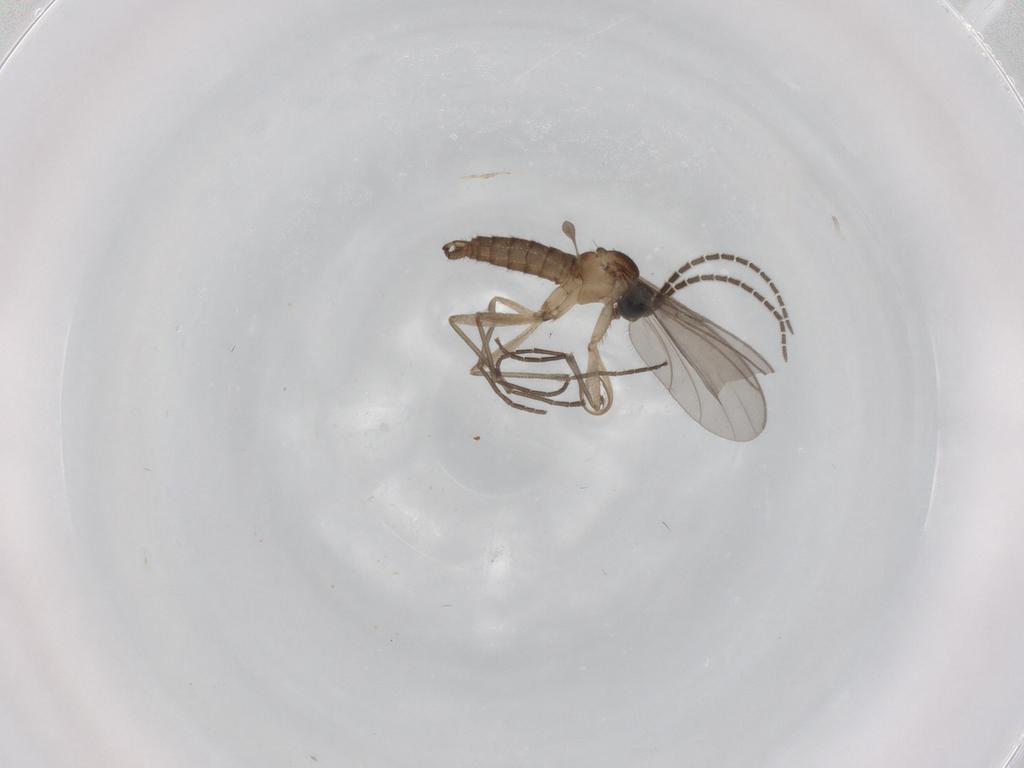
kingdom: Animalia
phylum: Arthropoda
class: Insecta
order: Diptera
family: Sciaridae
